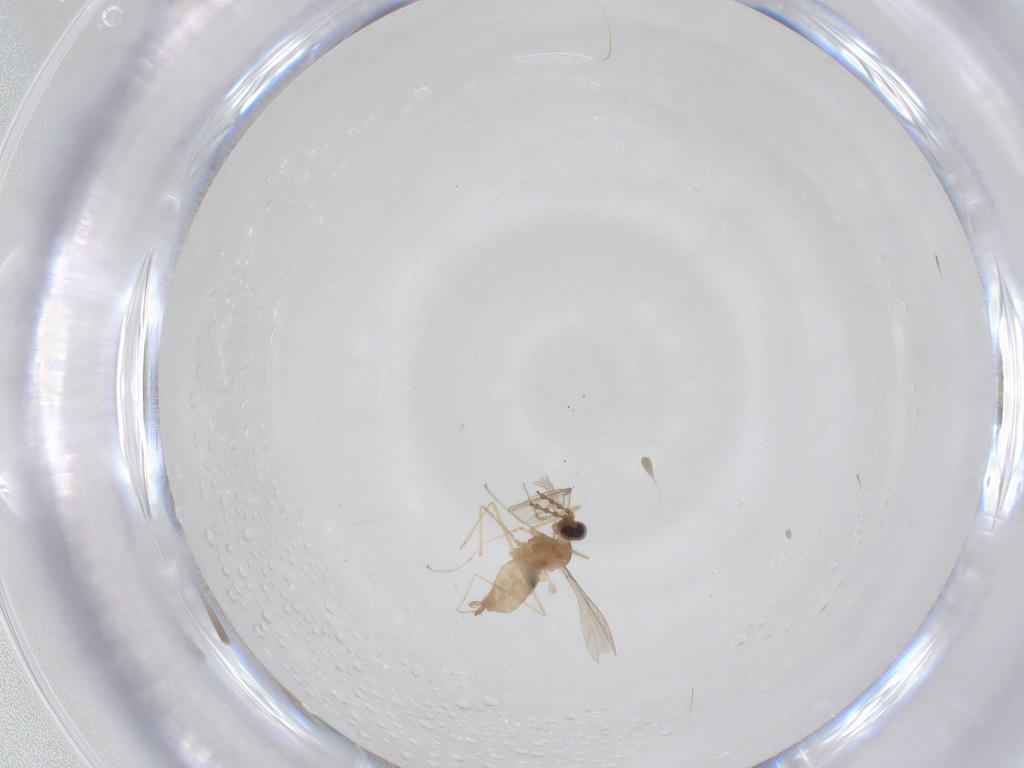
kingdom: Animalia
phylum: Arthropoda
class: Insecta
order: Diptera
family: Cecidomyiidae
